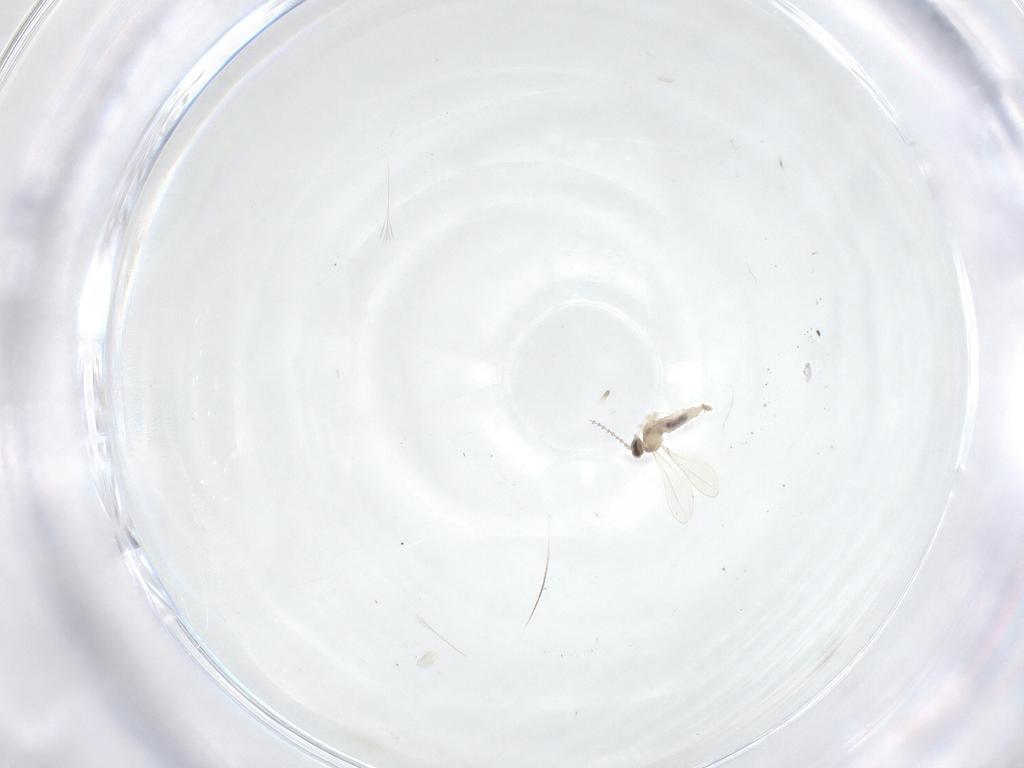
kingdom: Animalia
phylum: Arthropoda
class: Insecta
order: Diptera
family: Cecidomyiidae
